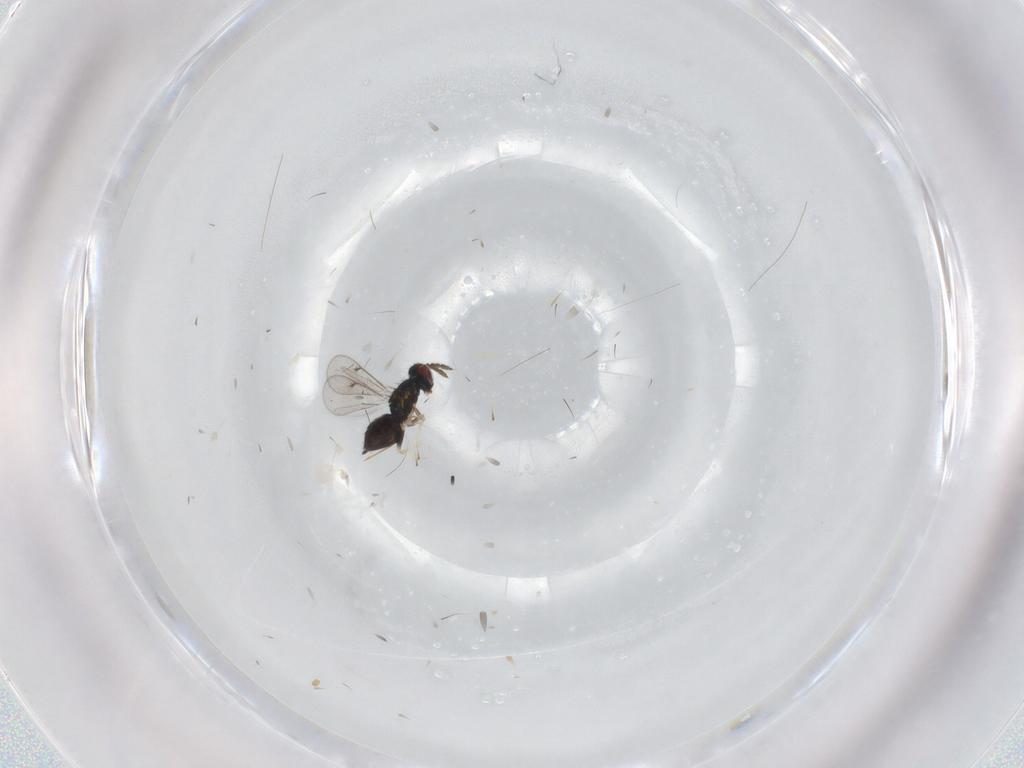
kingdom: Animalia
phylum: Arthropoda
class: Insecta
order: Hymenoptera
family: Eulophidae
